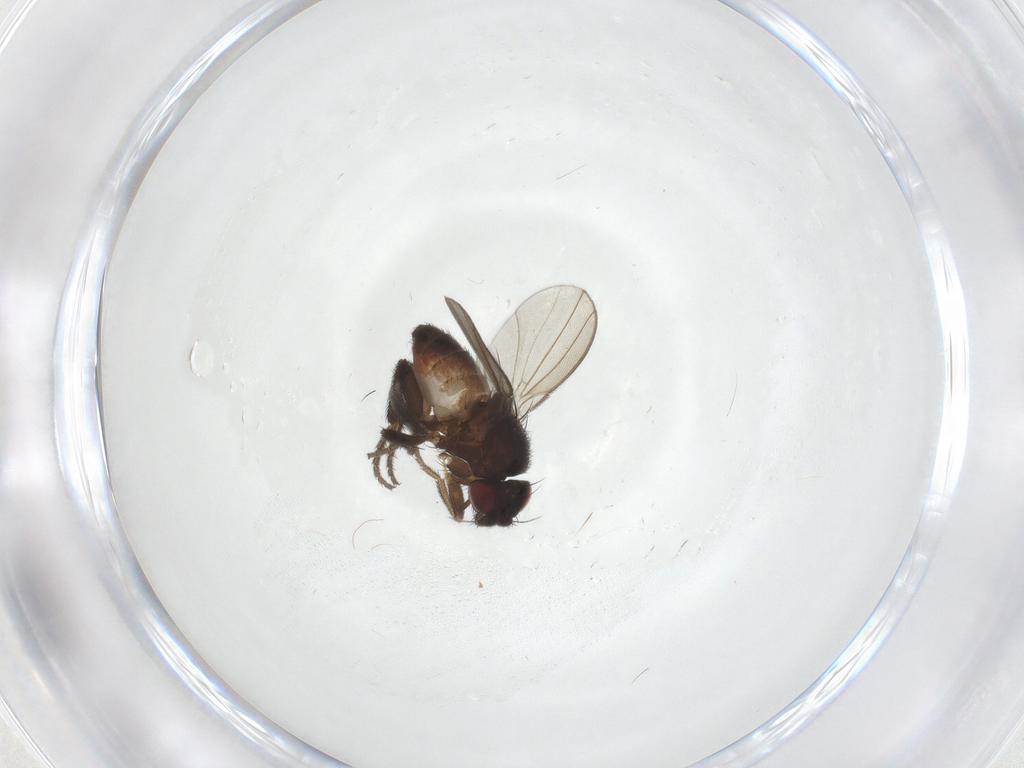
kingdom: Animalia
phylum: Arthropoda
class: Insecta
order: Diptera
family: Milichiidae
